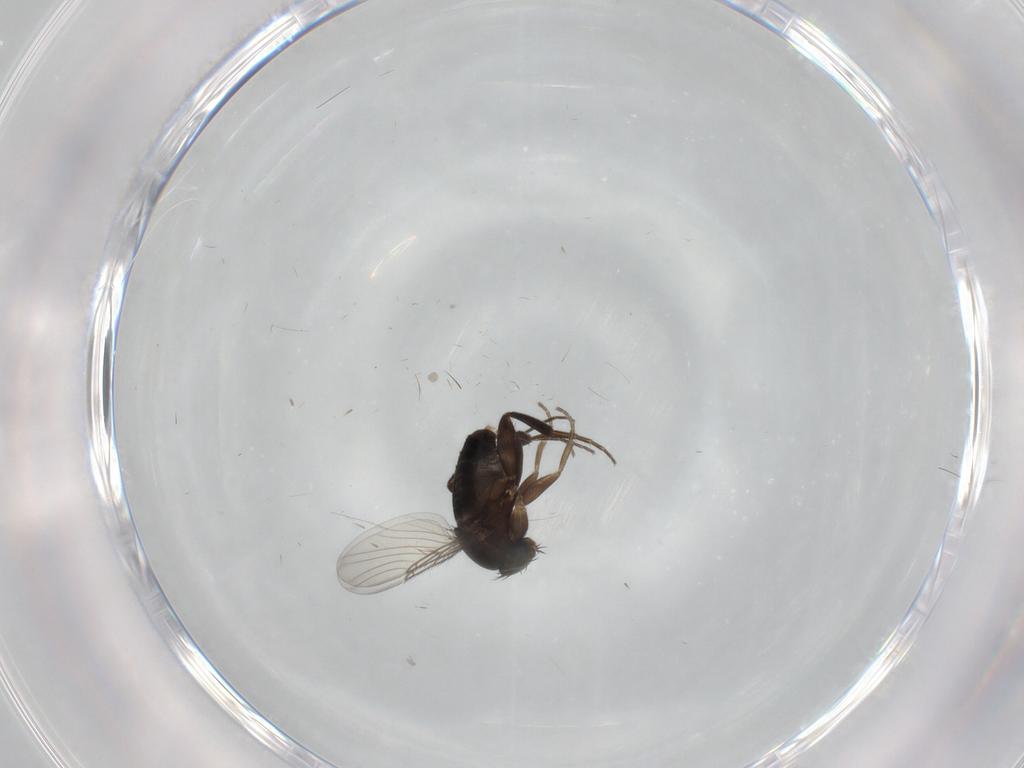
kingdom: Animalia
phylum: Arthropoda
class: Insecta
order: Diptera
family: Phoridae
